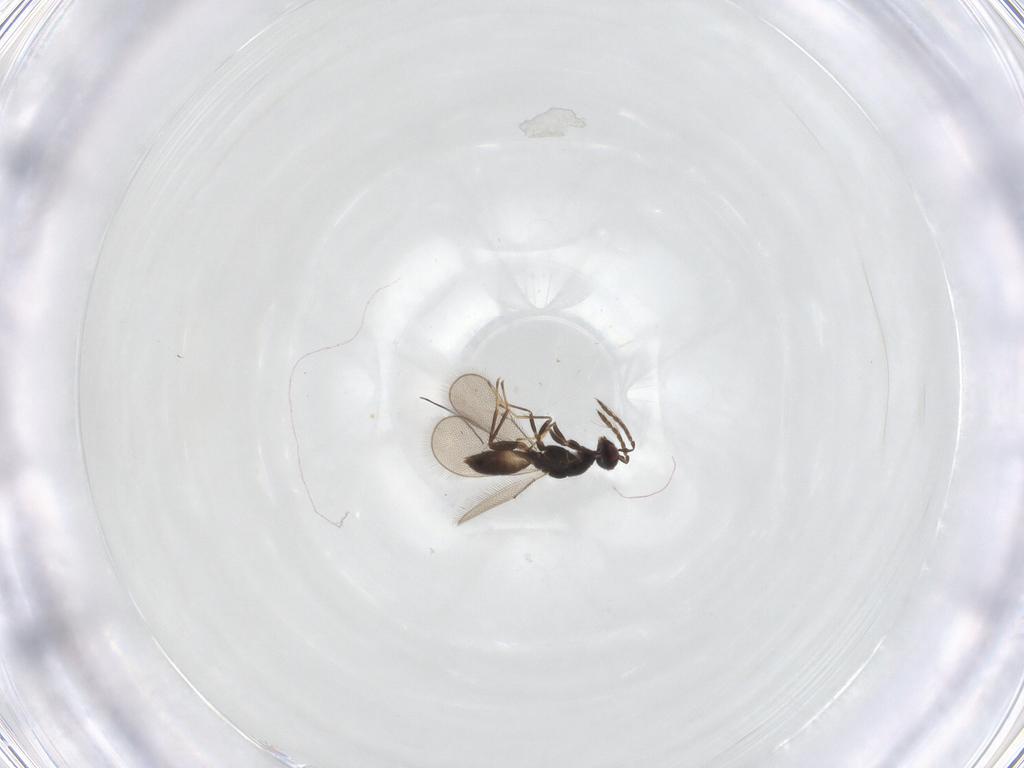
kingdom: Animalia
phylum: Arthropoda
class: Insecta
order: Hymenoptera
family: Eulophidae
